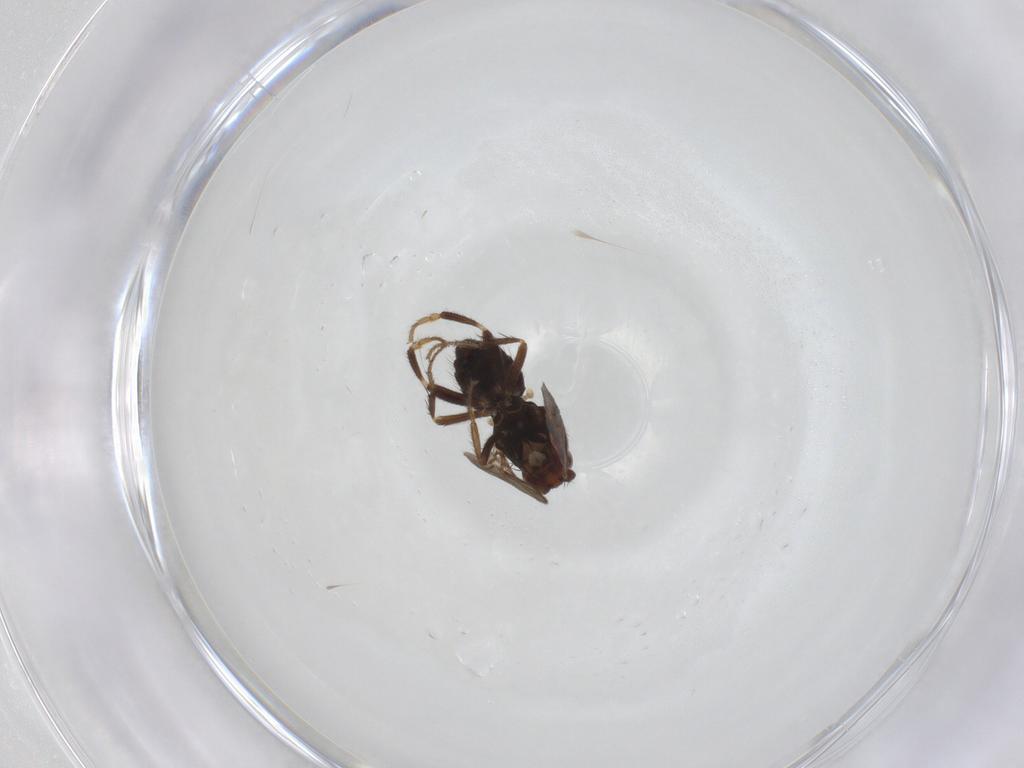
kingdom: Animalia
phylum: Arthropoda
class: Insecta
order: Diptera
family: Sphaeroceridae
